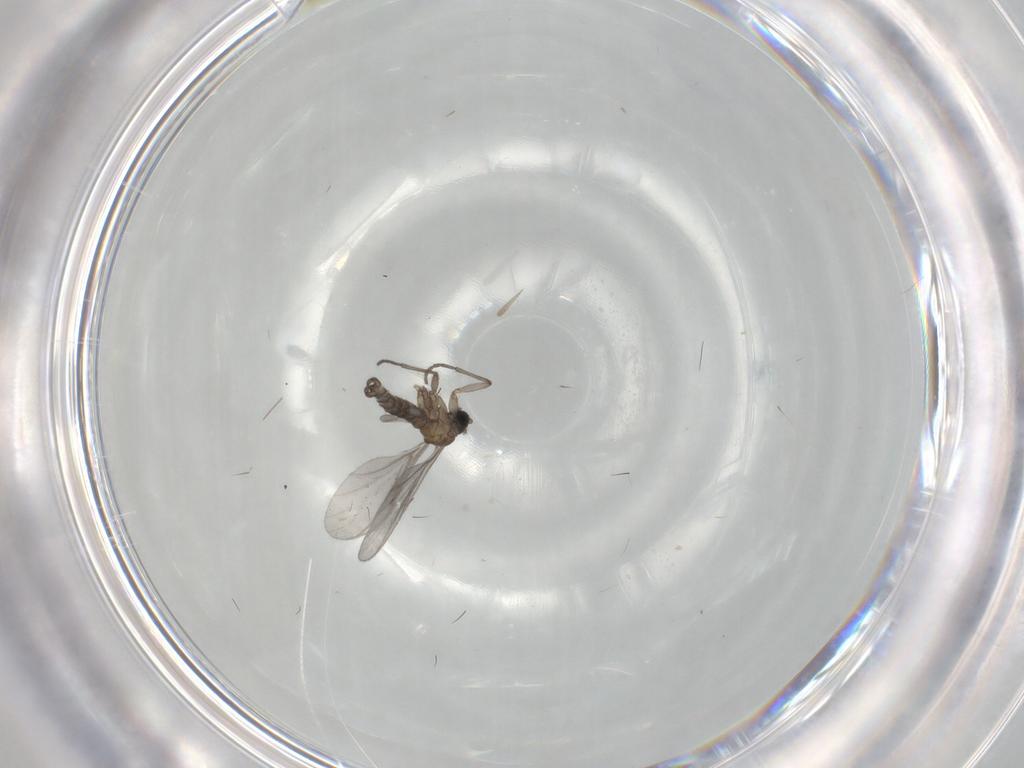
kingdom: Animalia
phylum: Arthropoda
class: Insecta
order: Diptera
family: Sciaridae
